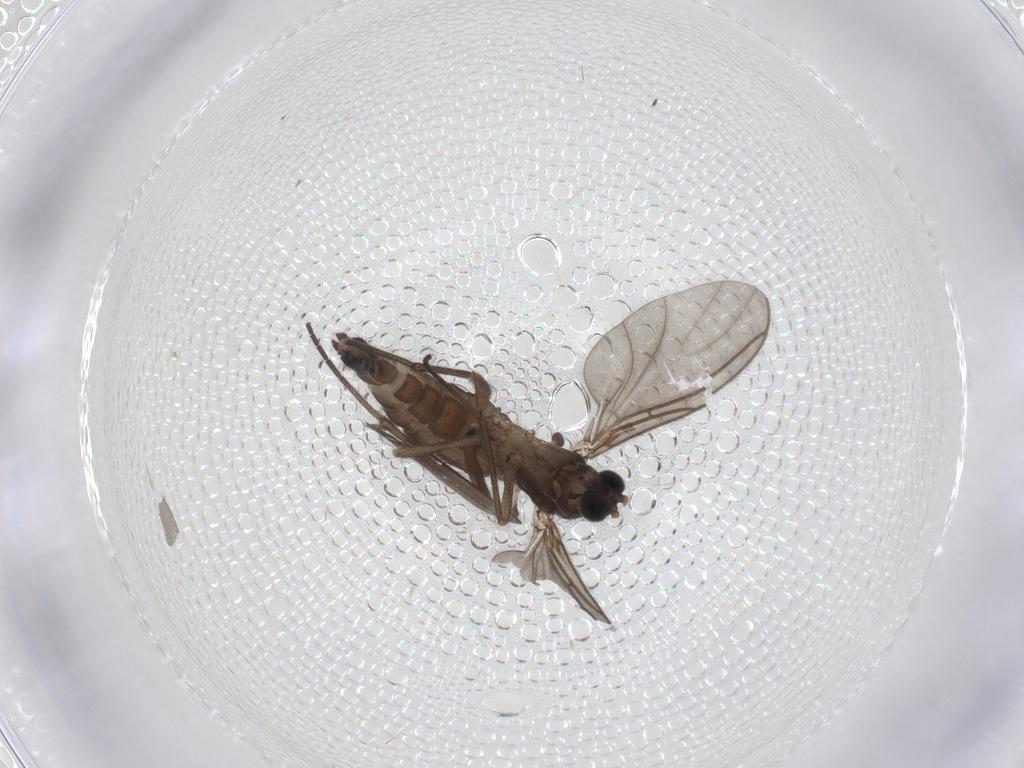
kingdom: Animalia
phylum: Arthropoda
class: Insecta
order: Diptera
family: Sciaridae
